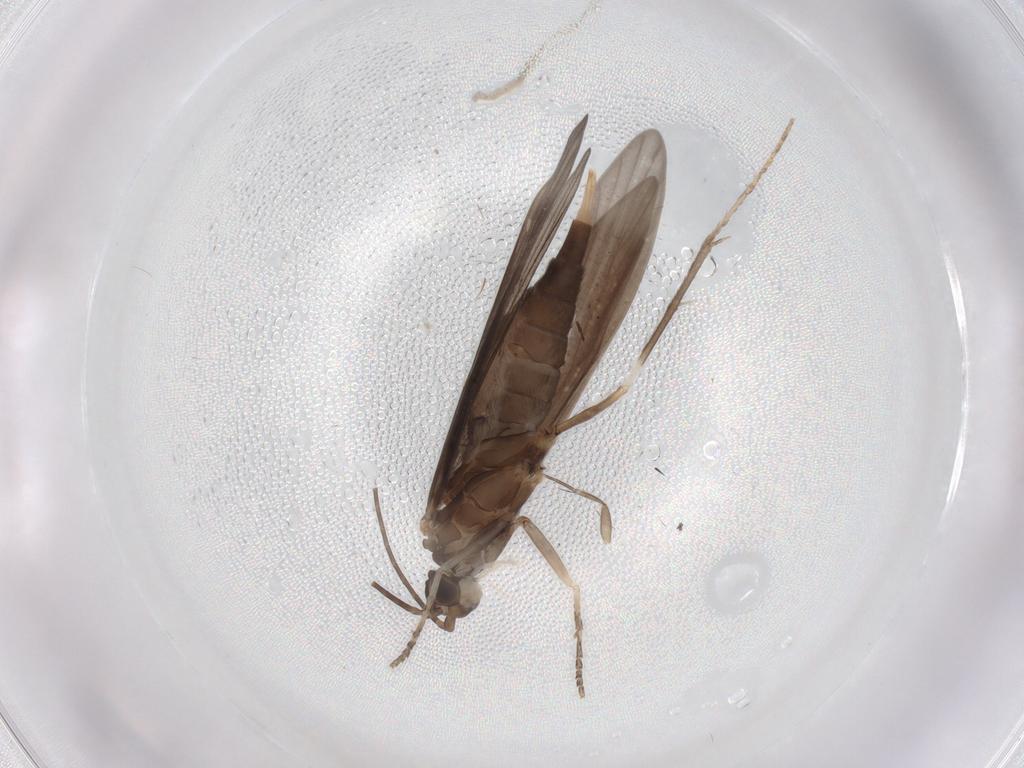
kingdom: Animalia
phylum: Arthropoda
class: Insecta
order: Trichoptera
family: Xiphocentronidae
